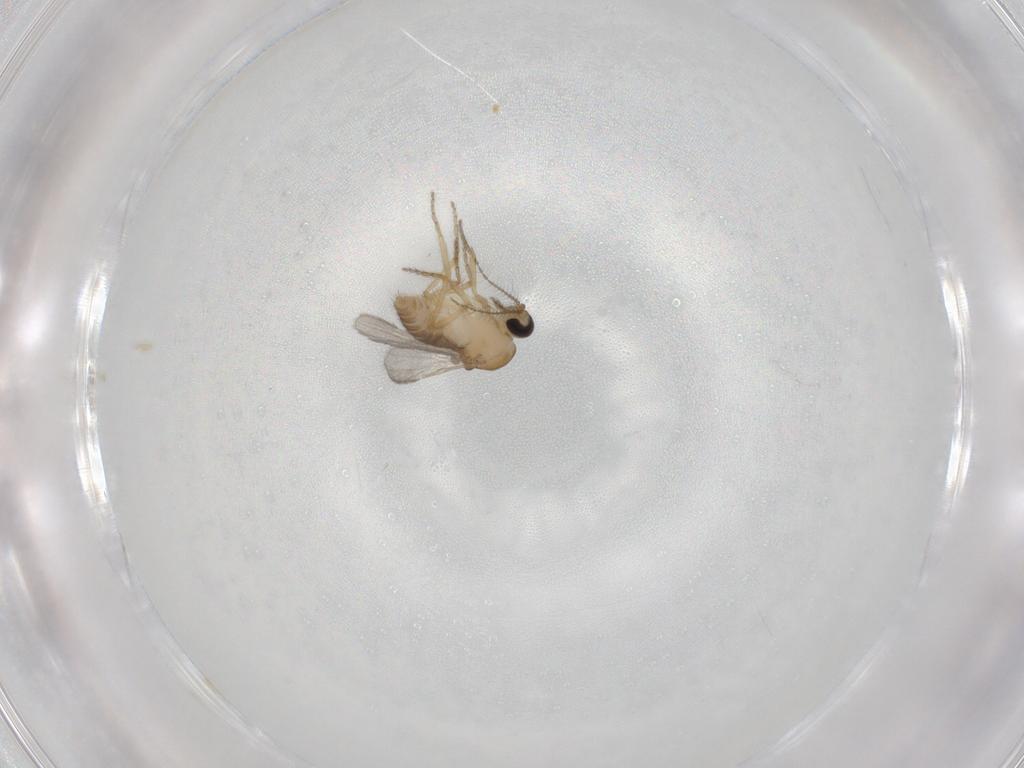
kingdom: Animalia
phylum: Arthropoda
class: Insecta
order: Diptera
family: Ceratopogonidae
